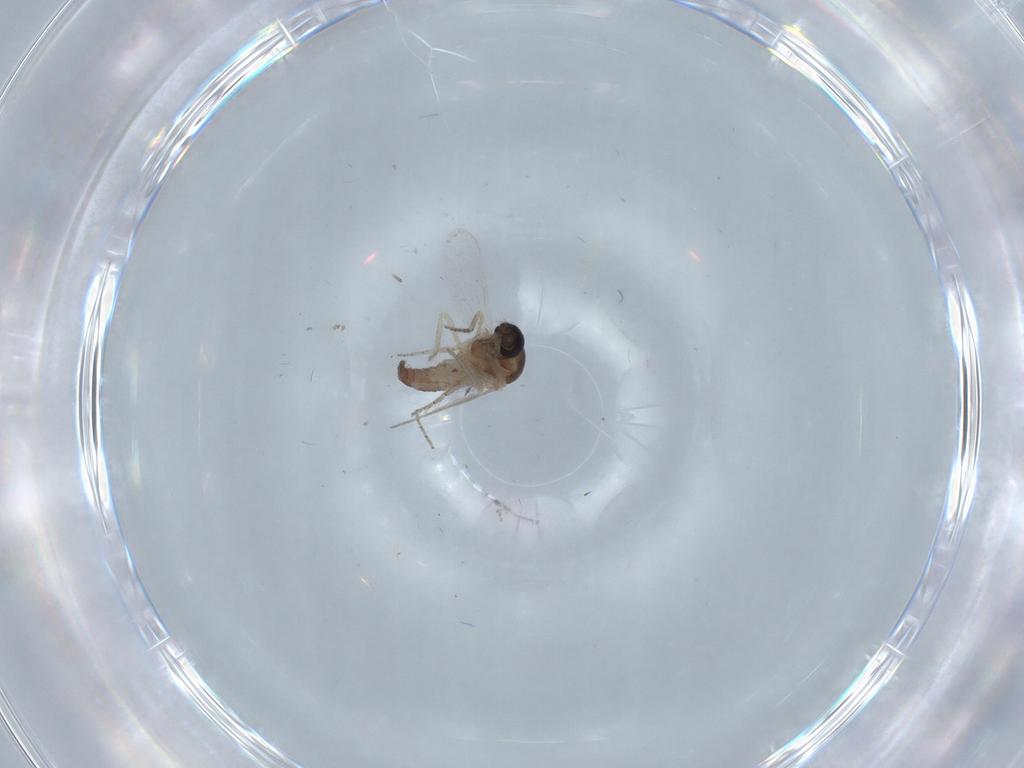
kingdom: Animalia
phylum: Arthropoda
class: Insecta
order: Diptera
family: Ceratopogonidae
